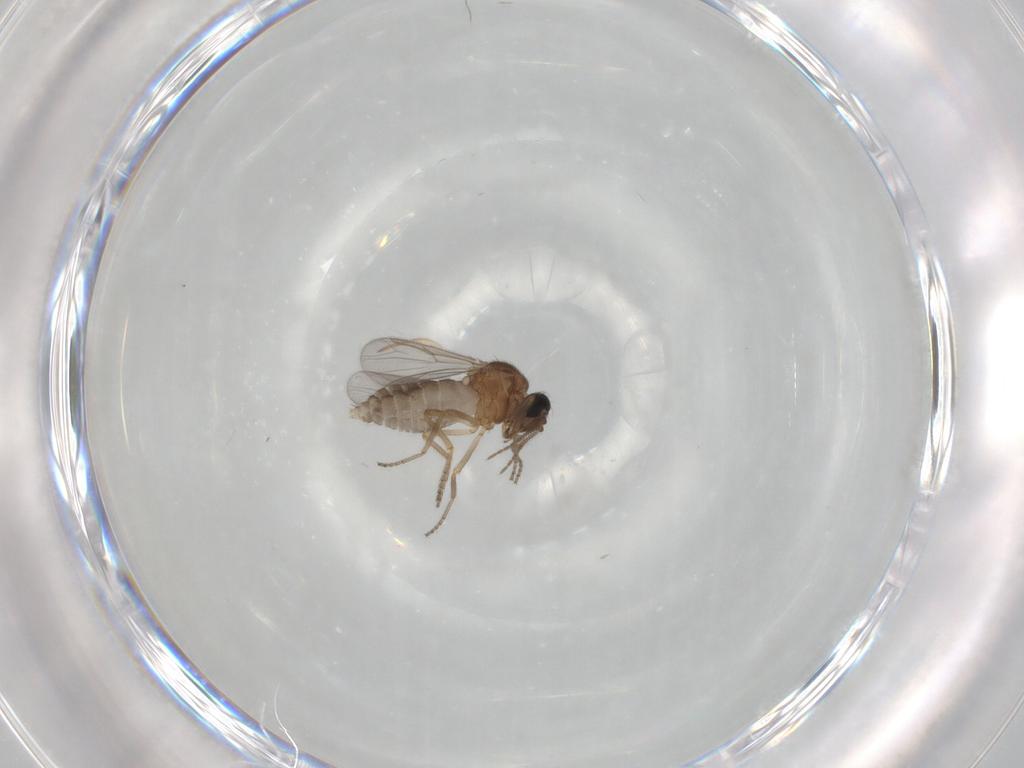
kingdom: Animalia
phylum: Arthropoda
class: Insecta
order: Diptera
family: Ceratopogonidae
